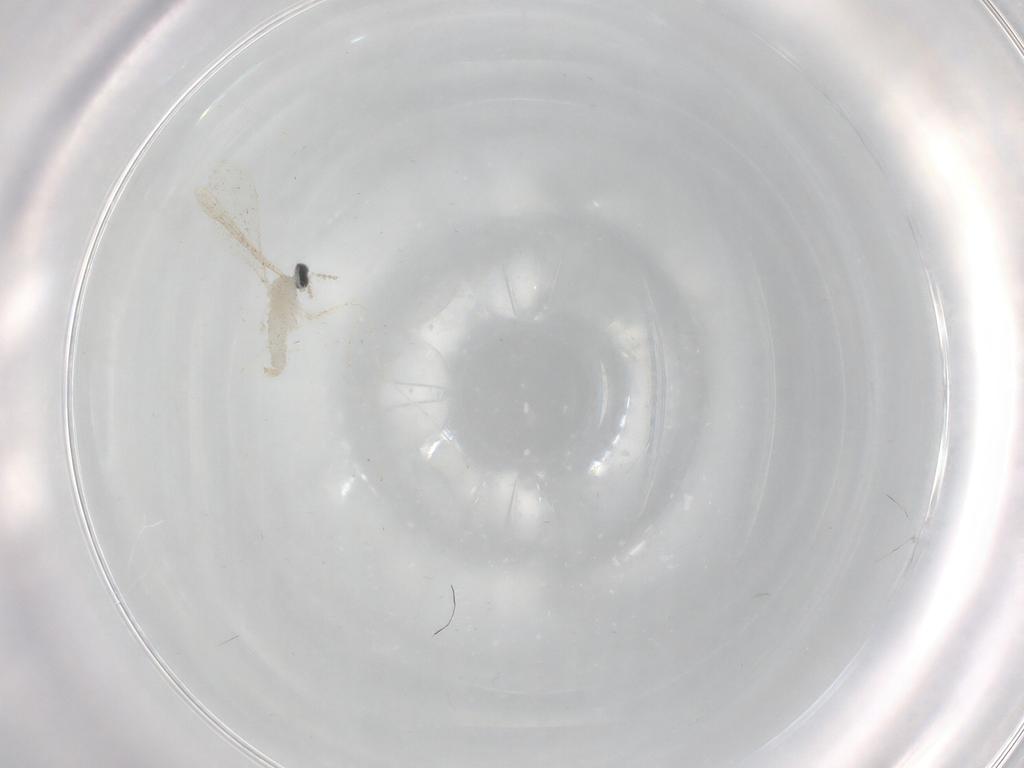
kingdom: Animalia
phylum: Arthropoda
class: Insecta
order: Diptera
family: Cecidomyiidae
